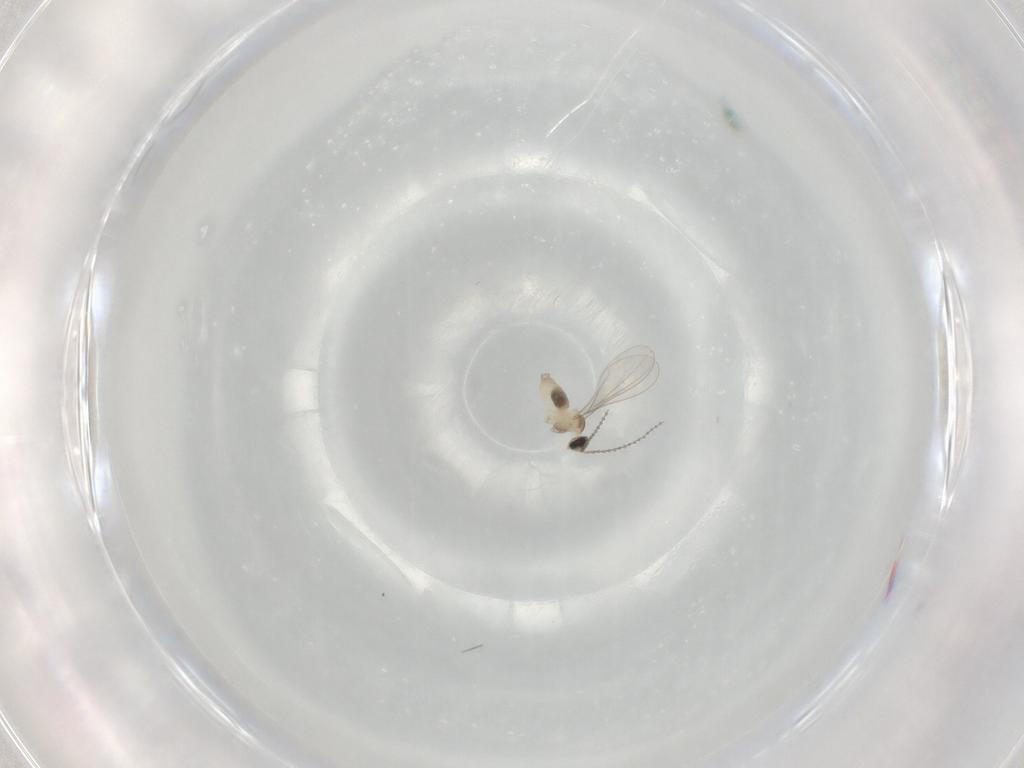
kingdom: Animalia
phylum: Arthropoda
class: Insecta
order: Diptera
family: Cecidomyiidae
